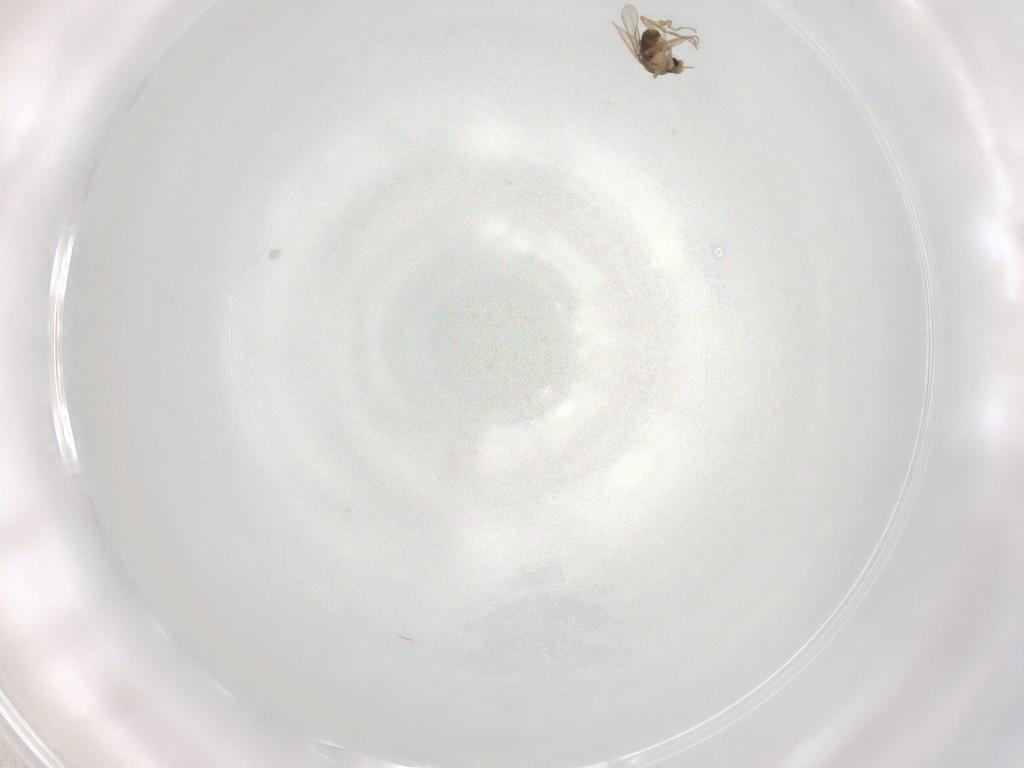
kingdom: Animalia
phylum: Arthropoda
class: Insecta
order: Diptera
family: Phoridae
